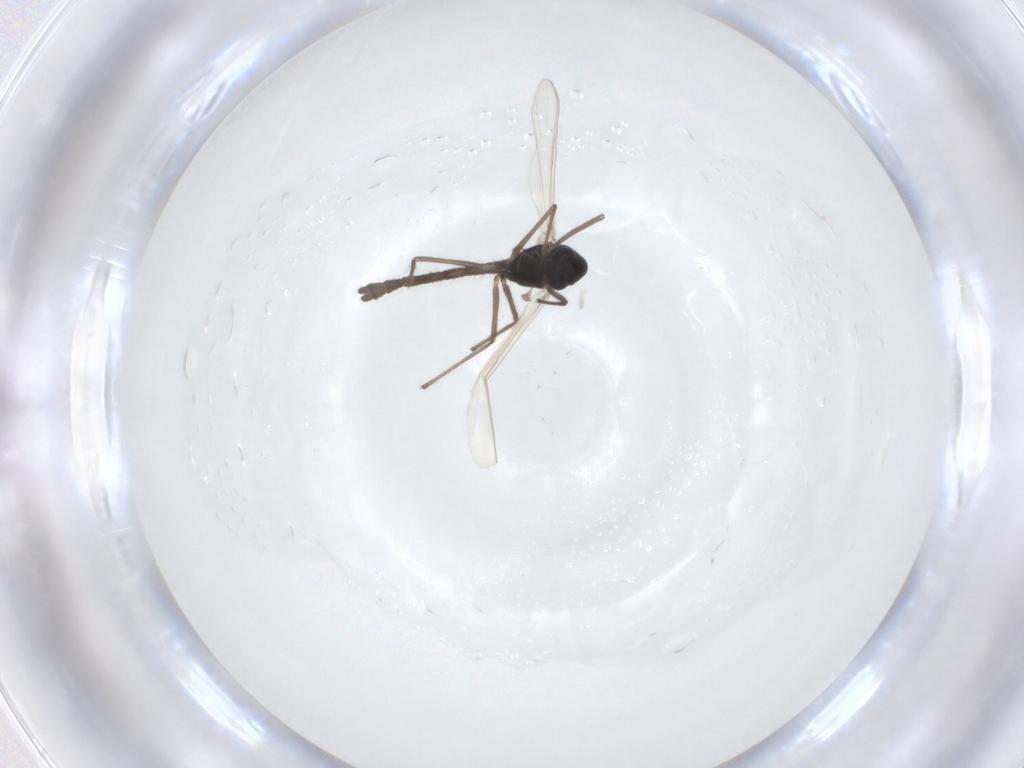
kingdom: Animalia
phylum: Arthropoda
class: Insecta
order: Diptera
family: Chironomidae
